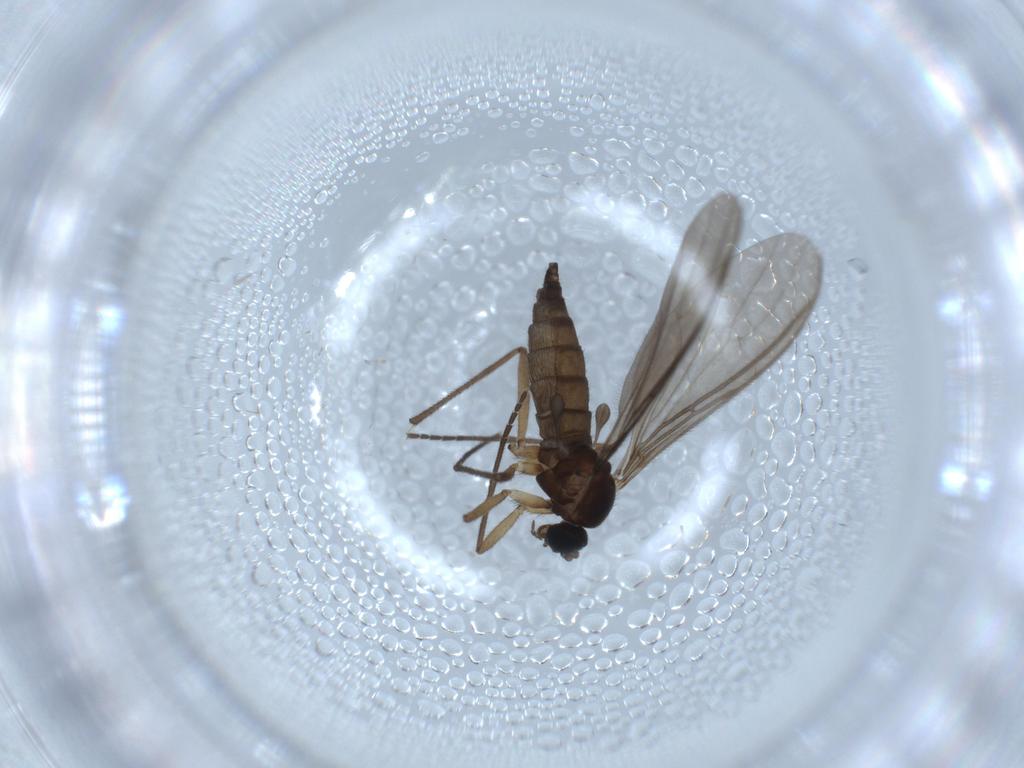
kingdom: Animalia
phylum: Arthropoda
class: Insecta
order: Diptera
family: Sciaridae
